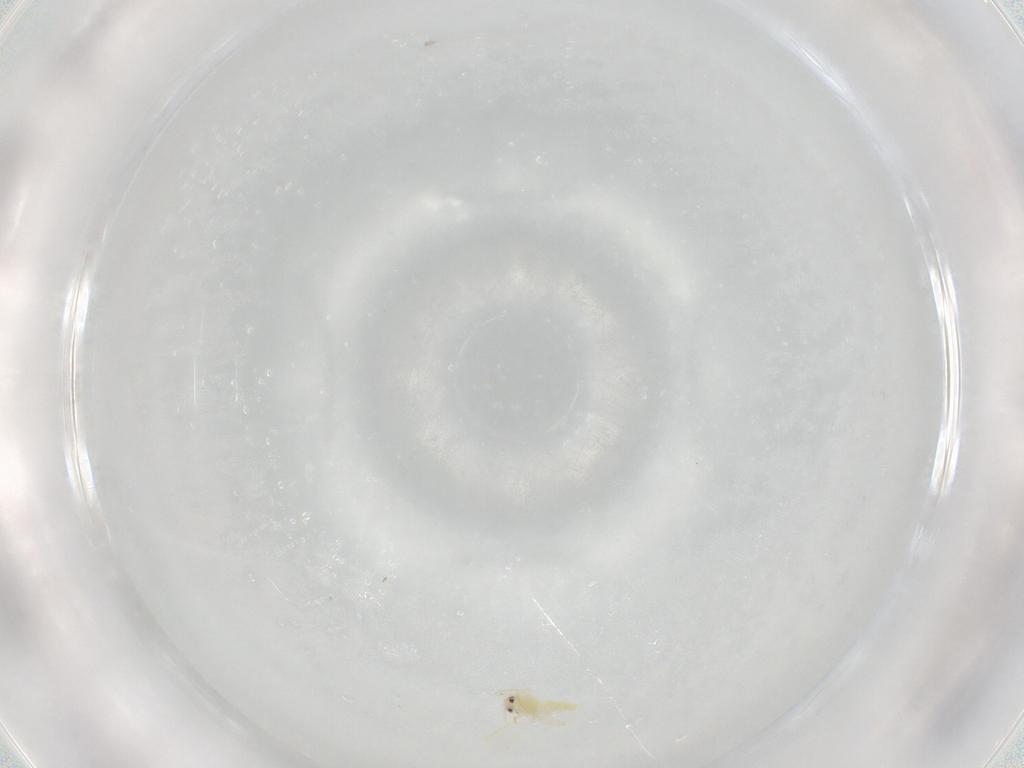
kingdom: Animalia
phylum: Arthropoda
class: Insecta
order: Hemiptera
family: Aleyrodidae
